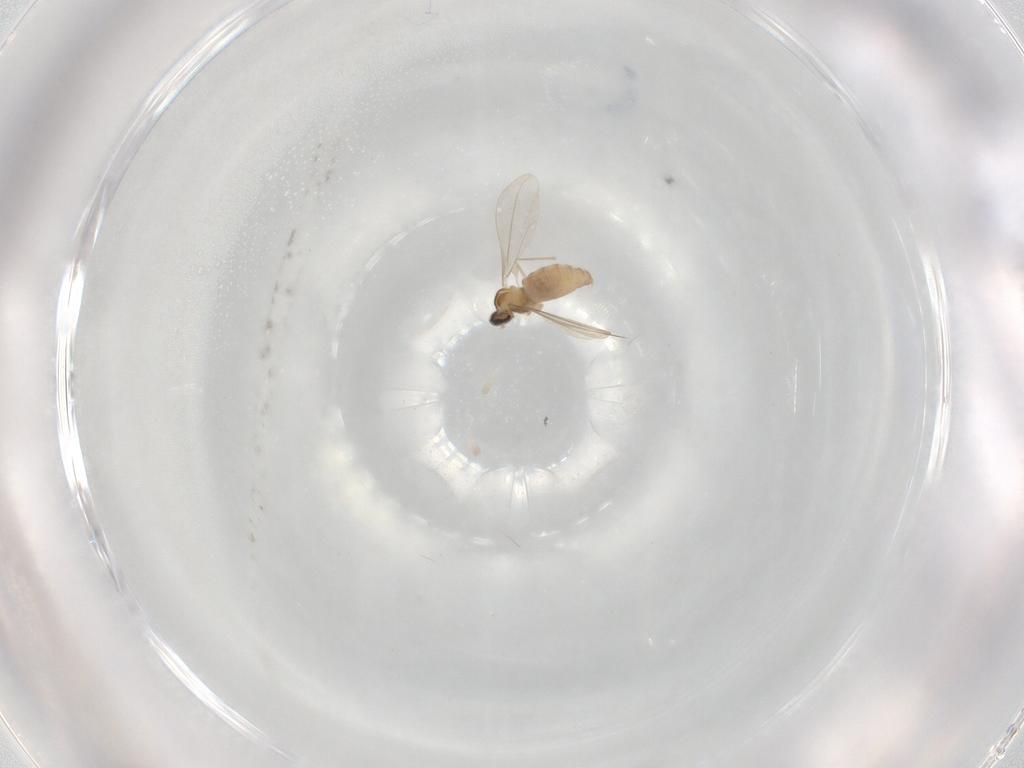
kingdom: Animalia
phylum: Arthropoda
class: Insecta
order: Diptera
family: Cecidomyiidae
